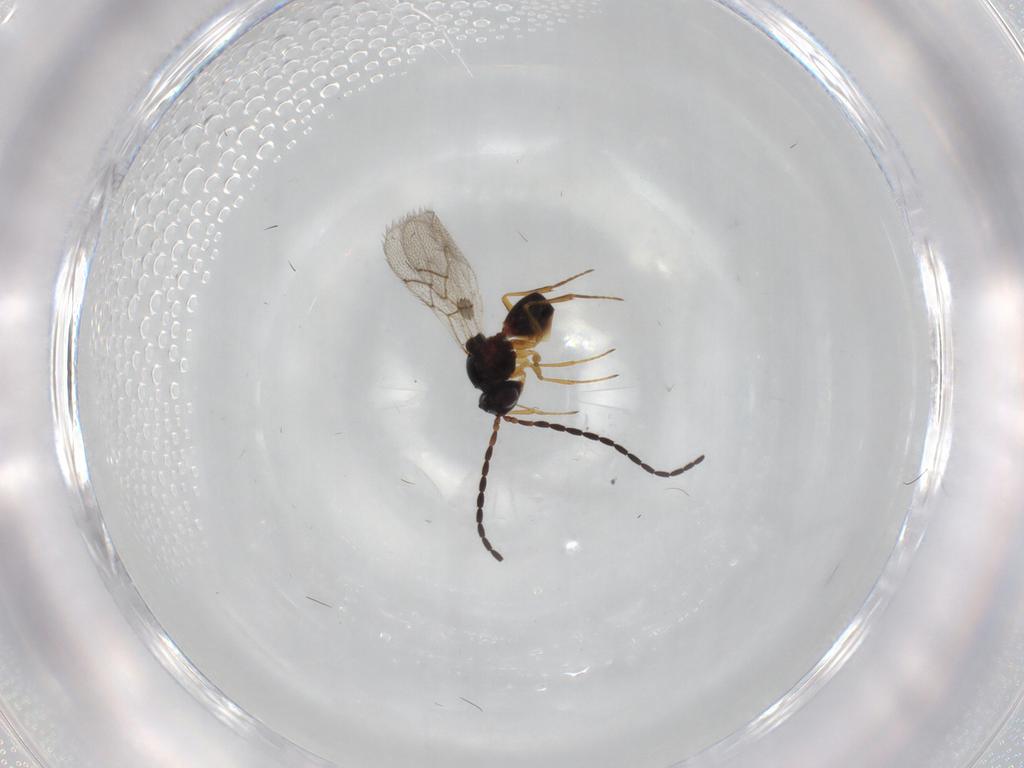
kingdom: Animalia
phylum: Arthropoda
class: Insecta
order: Hymenoptera
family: Figitidae
